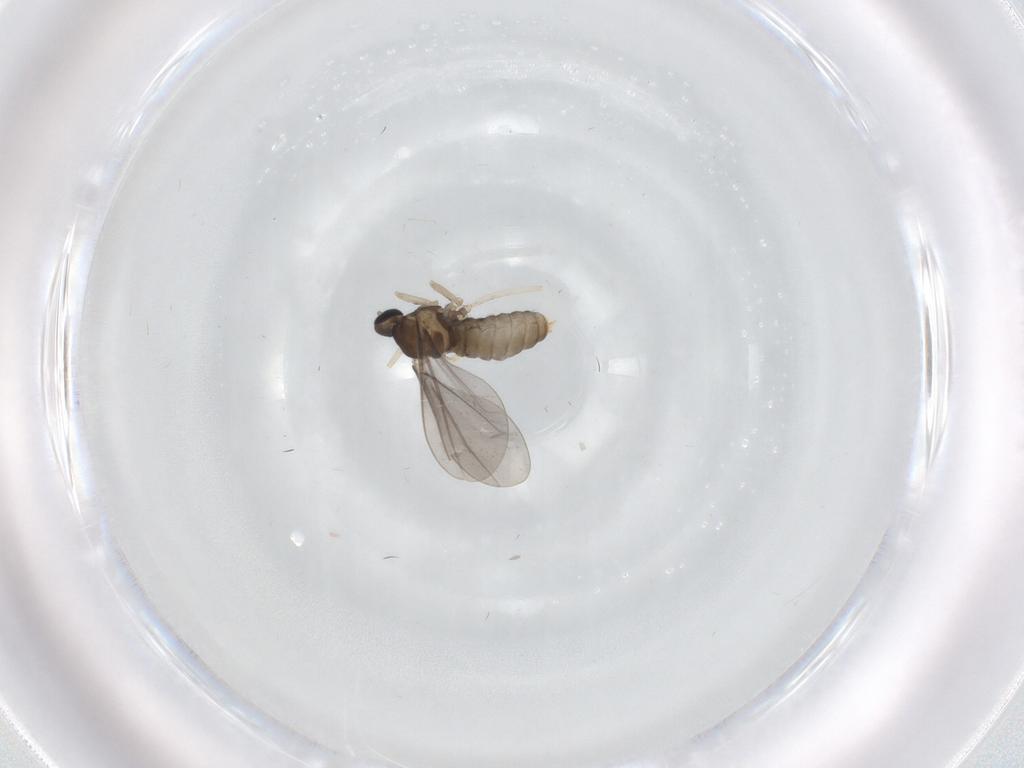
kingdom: Animalia
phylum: Arthropoda
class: Insecta
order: Diptera
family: Cecidomyiidae
